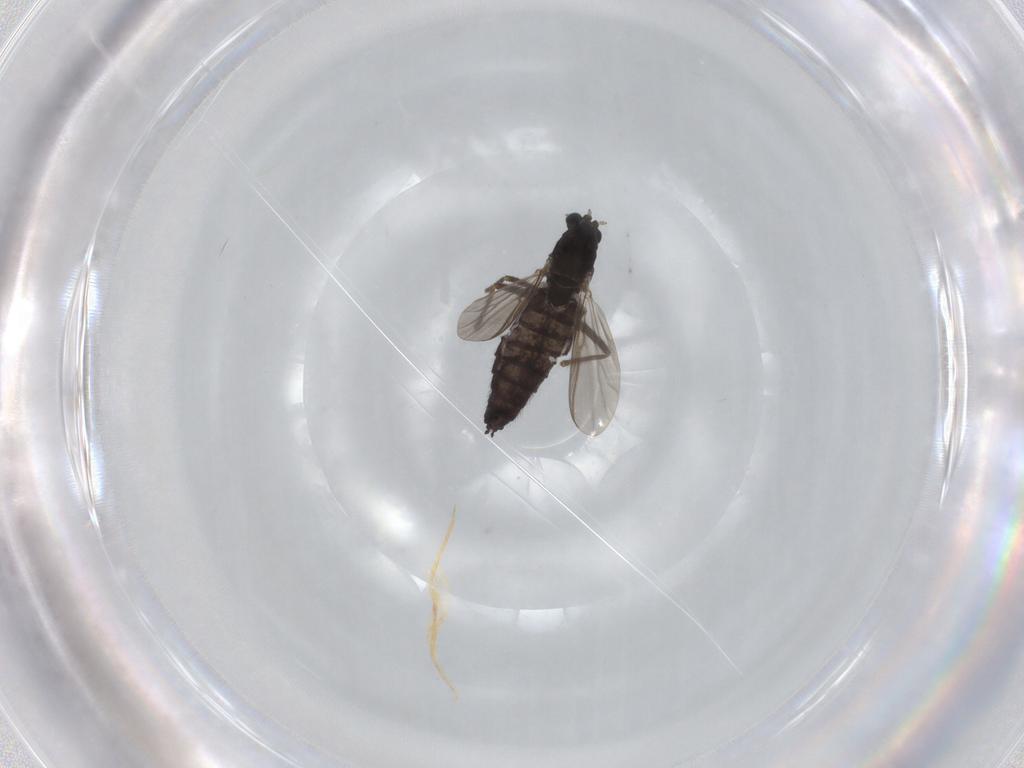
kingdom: Animalia
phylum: Arthropoda
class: Insecta
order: Diptera
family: Chironomidae
